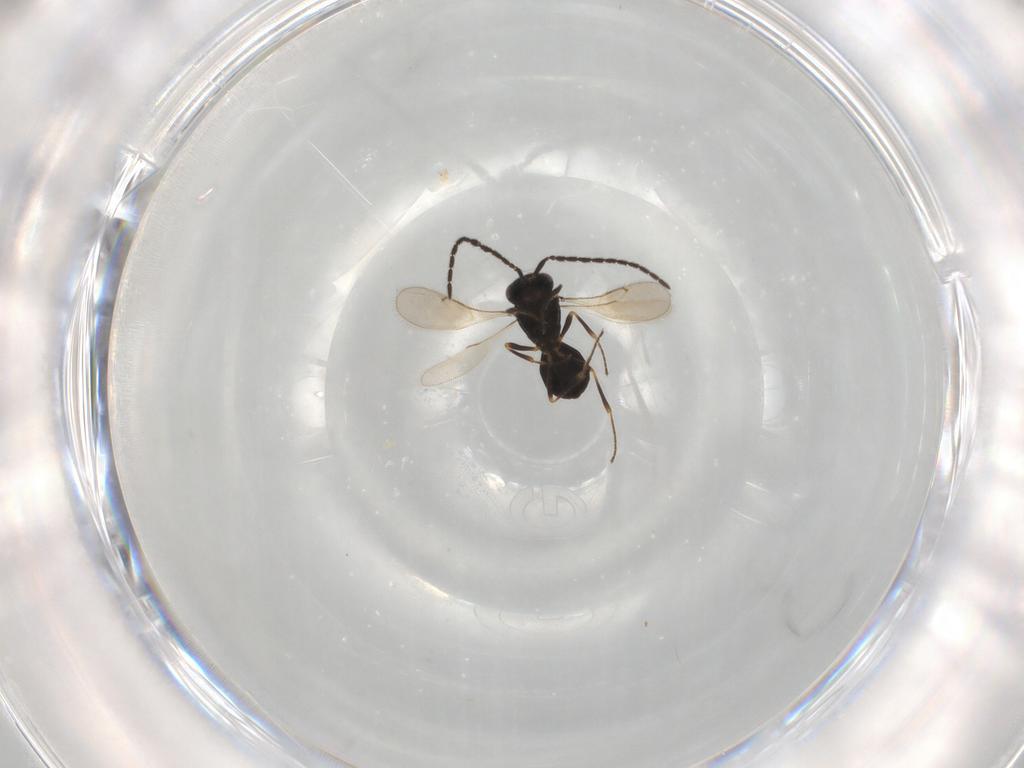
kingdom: Animalia
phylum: Arthropoda
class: Insecta
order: Hymenoptera
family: Scelionidae
